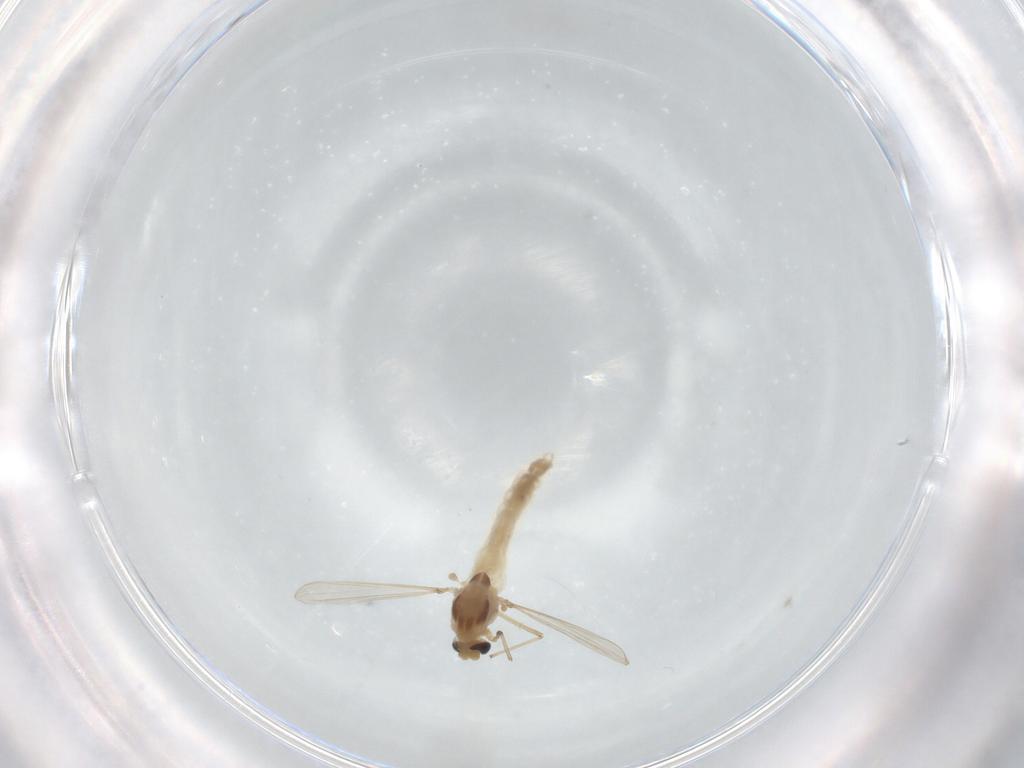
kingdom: Animalia
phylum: Arthropoda
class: Insecta
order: Diptera
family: Chironomidae
